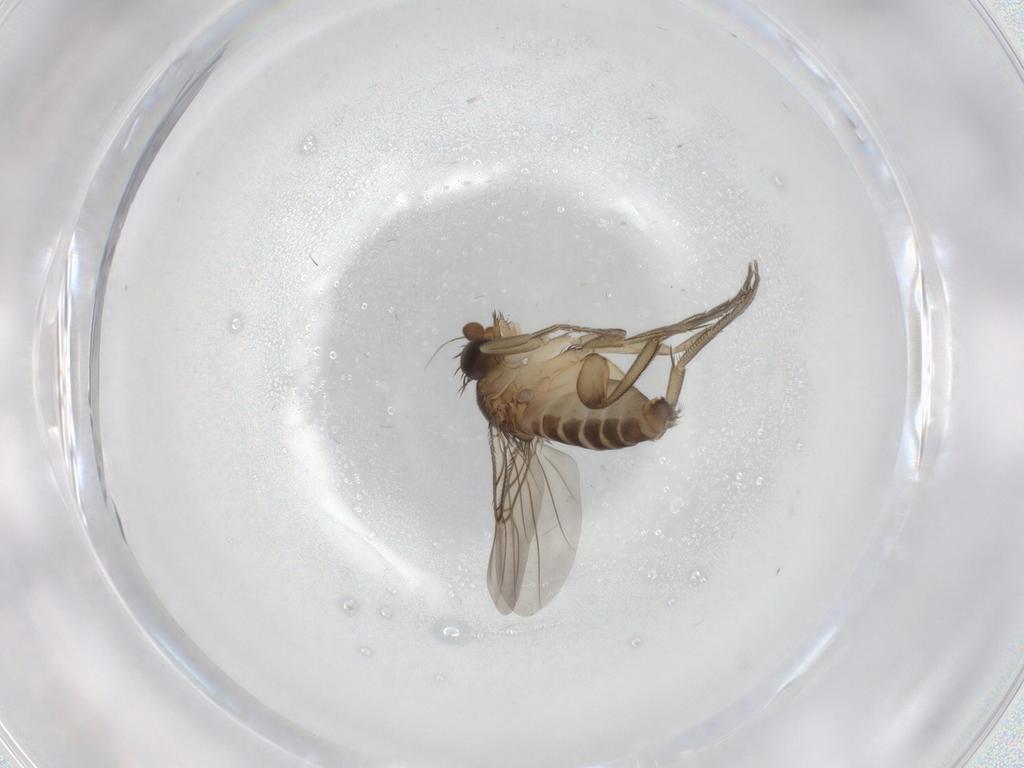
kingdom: Animalia
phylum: Arthropoda
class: Insecta
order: Diptera
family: Phoridae
